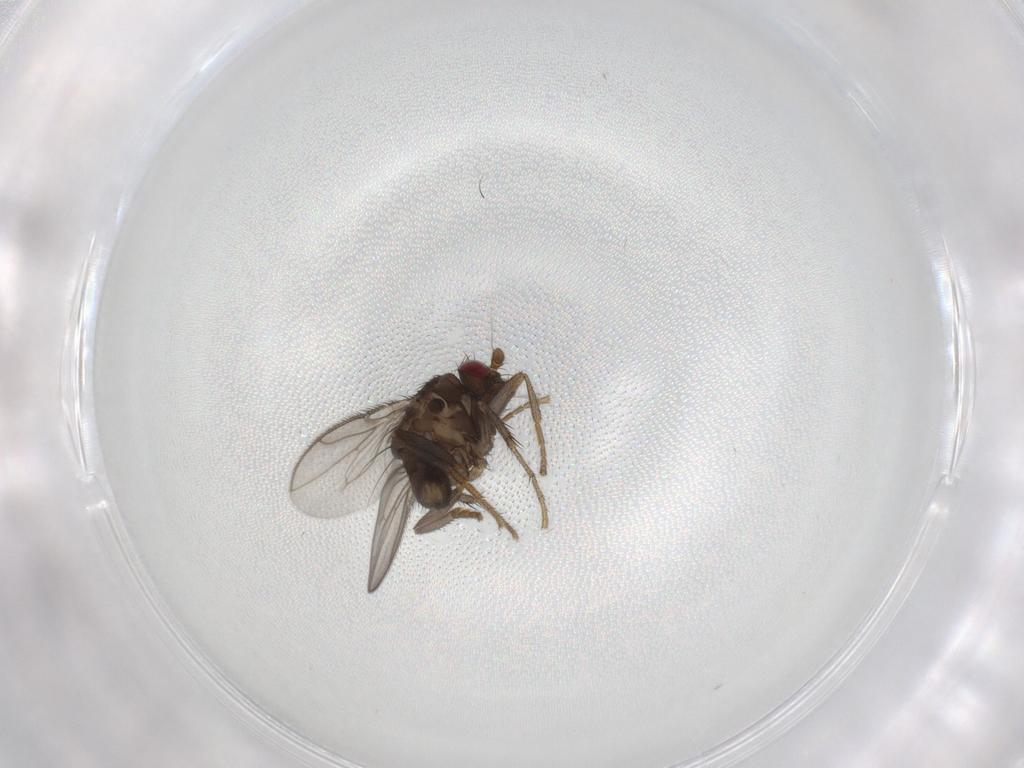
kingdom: Animalia
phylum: Arthropoda
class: Insecta
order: Diptera
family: Sphaeroceridae
